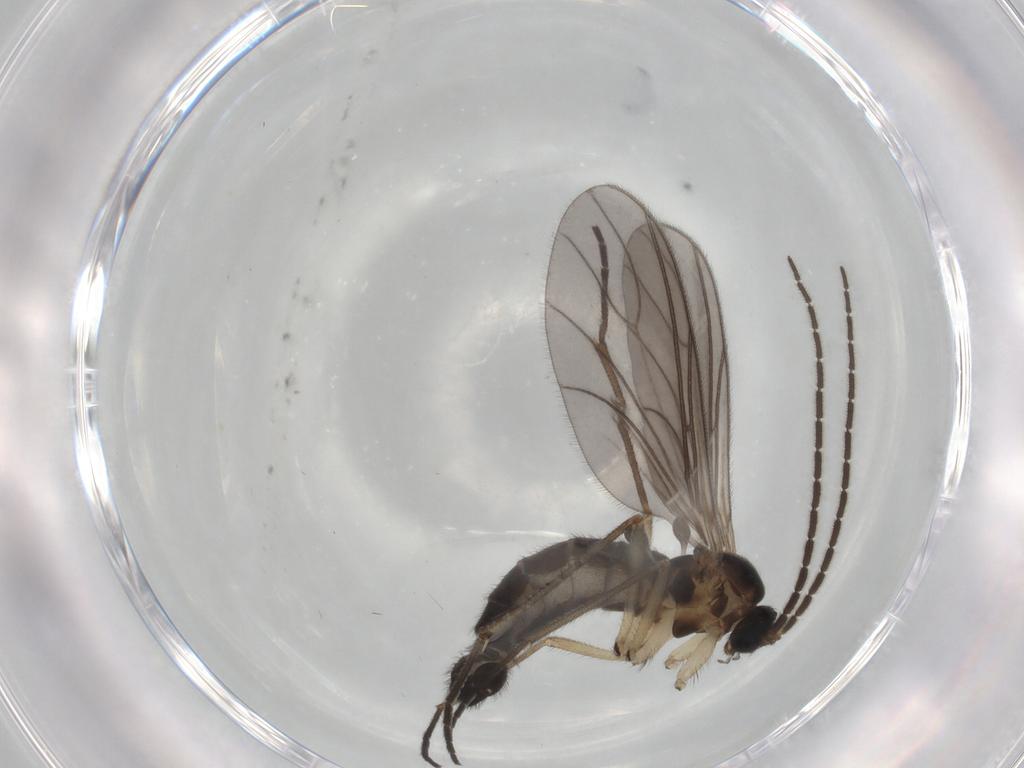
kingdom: Animalia
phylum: Arthropoda
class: Insecta
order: Diptera
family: Sciaridae
